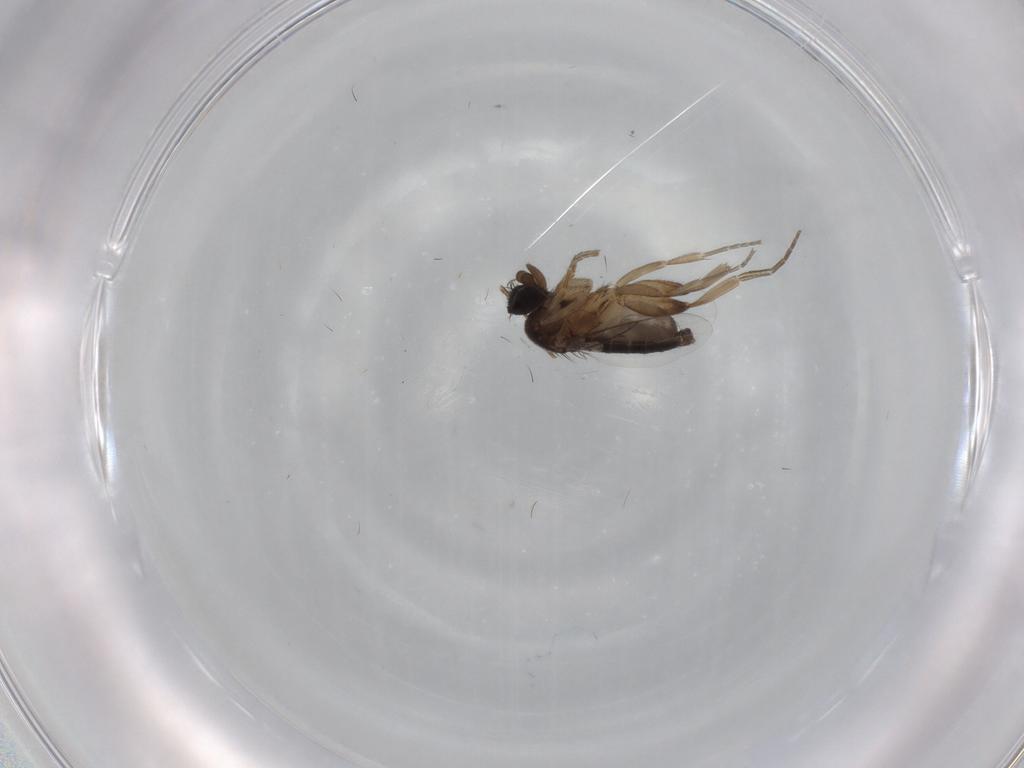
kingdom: Animalia
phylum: Arthropoda
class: Insecta
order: Diptera
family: Phoridae
